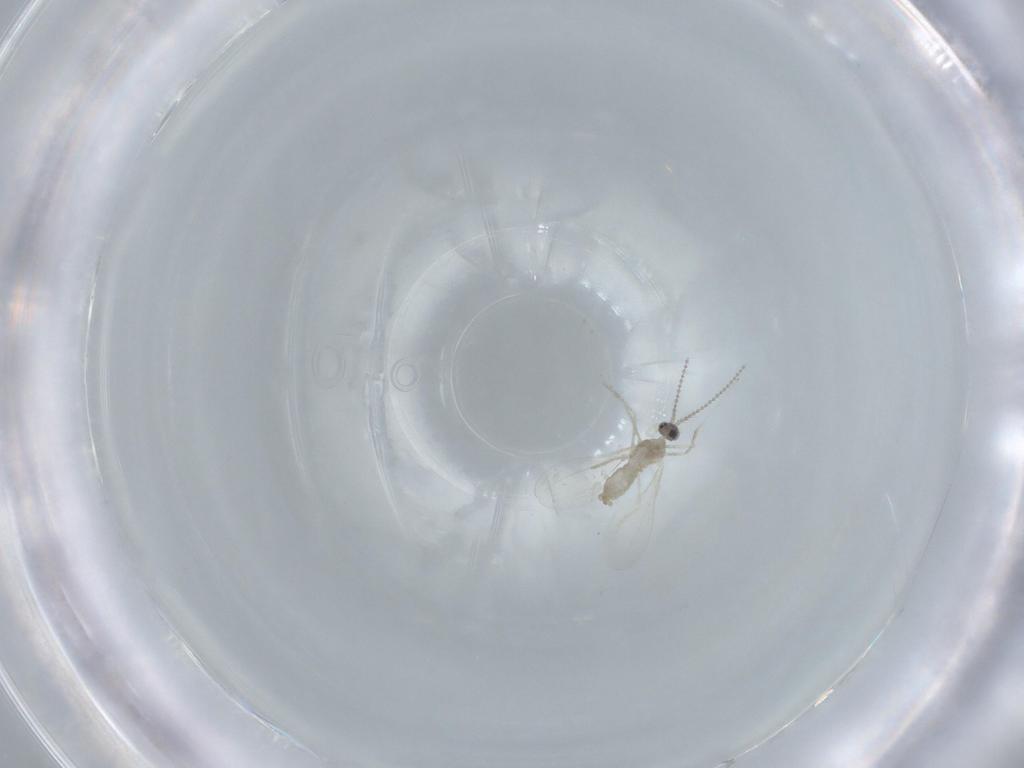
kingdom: Animalia
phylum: Arthropoda
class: Insecta
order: Diptera
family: Cecidomyiidae
